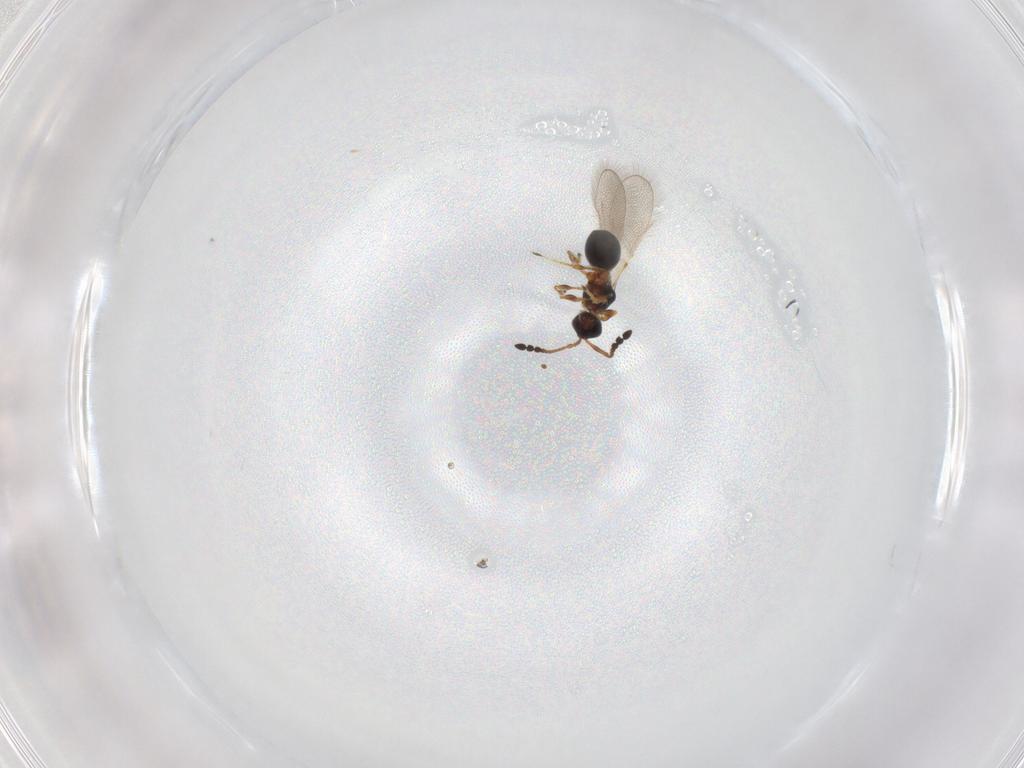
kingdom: Animalia
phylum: Arthropoda
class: Insecta
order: Hymenoptera
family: Diapriidae
